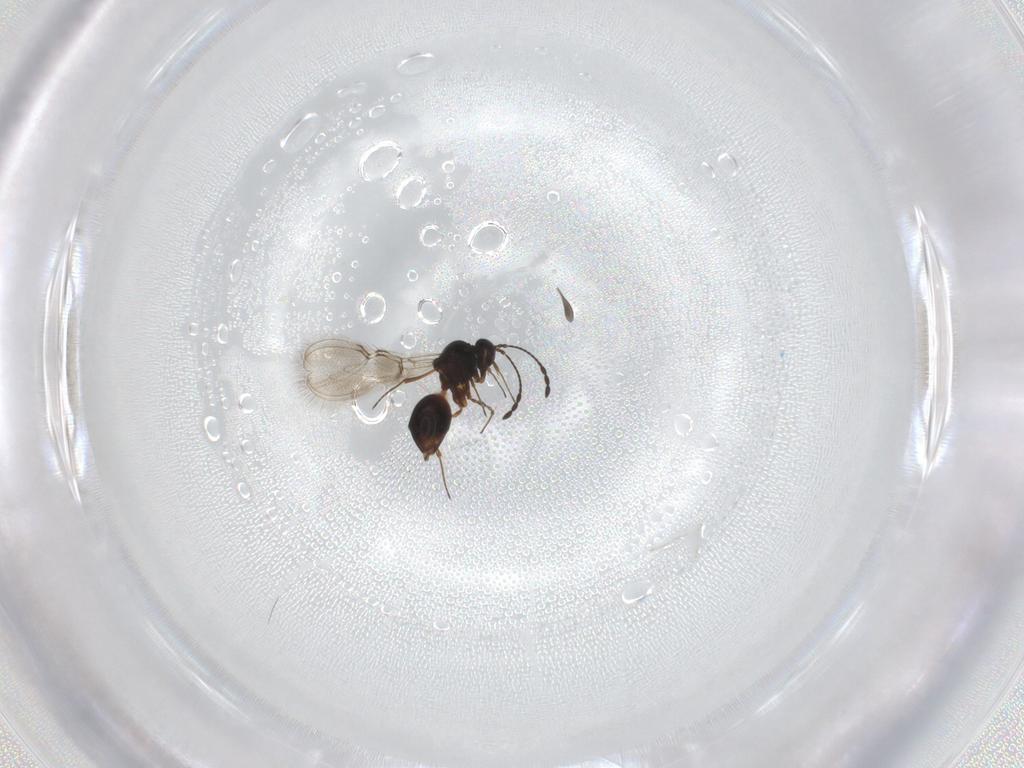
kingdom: Animalia
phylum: Arthropoda
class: Insecta
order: Hymenoptera
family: Figitidae
